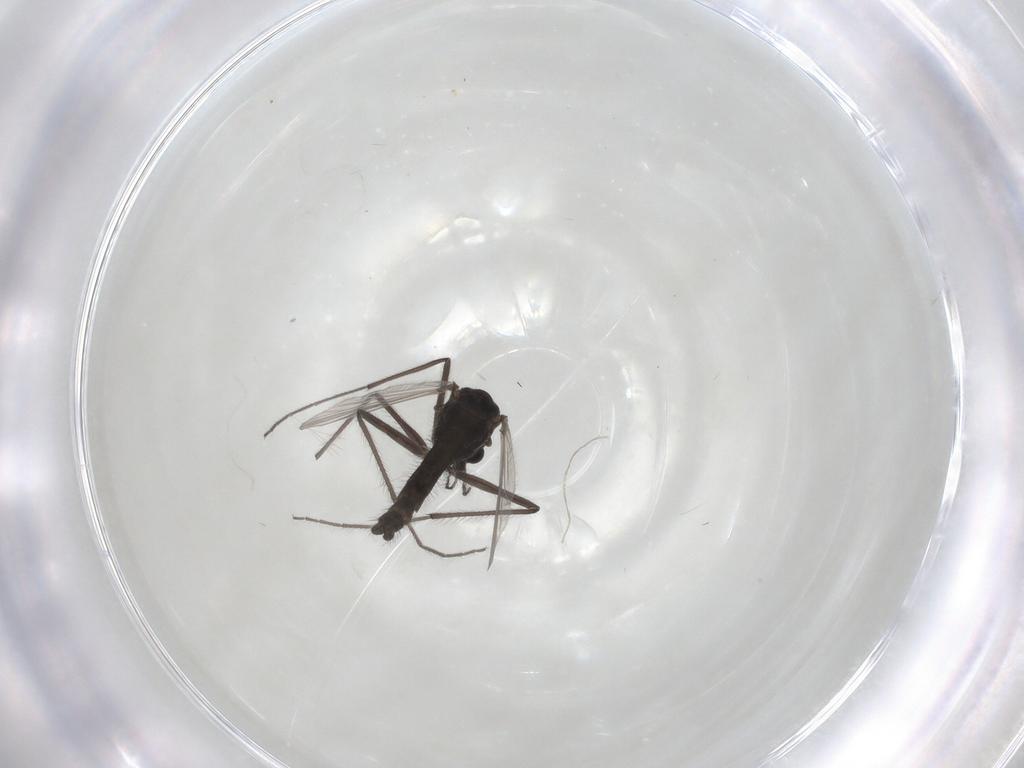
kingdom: Animalia
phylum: Arthropoda
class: Insecta
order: Diptera
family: Chironomidae
